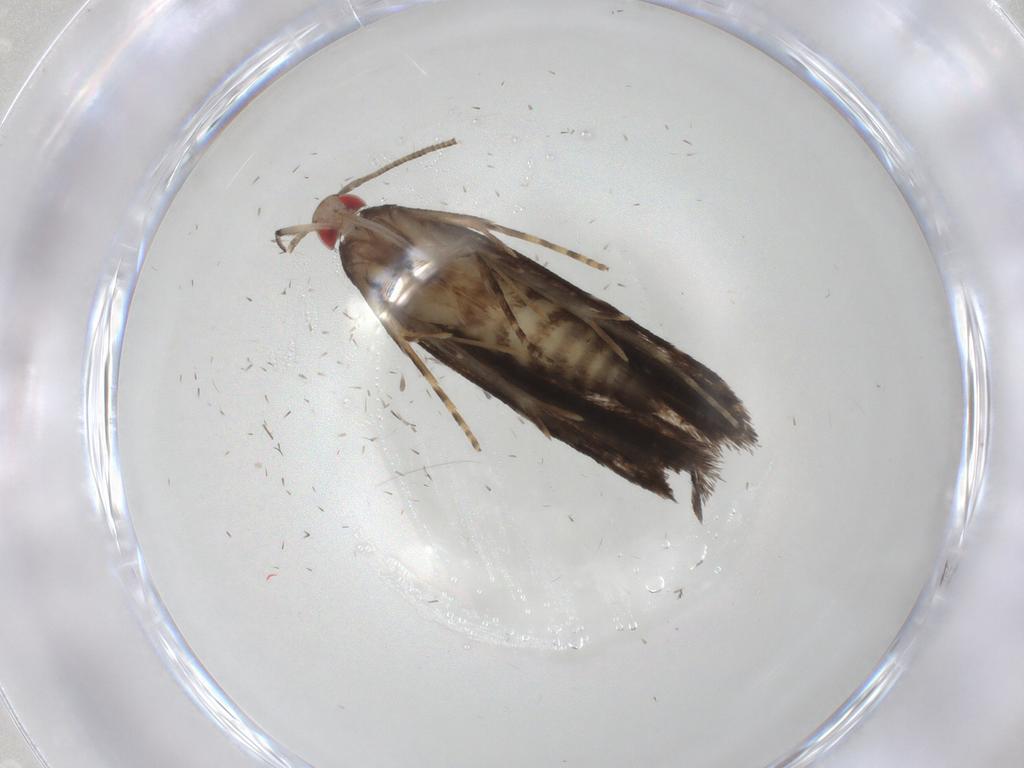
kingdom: Animalia
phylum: Arthropoda
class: Insecta
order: Lepidoptera
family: Gelechiidae
